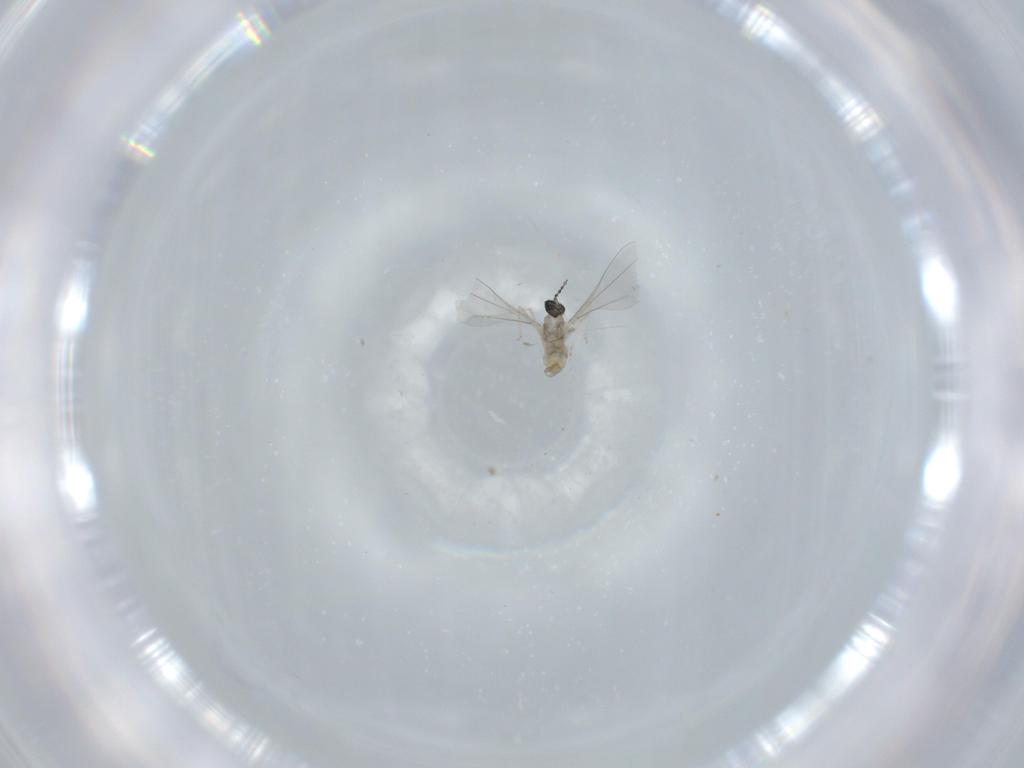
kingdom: Animalia
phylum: Arthropoda
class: Insecta
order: Diptera
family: Phoridae
